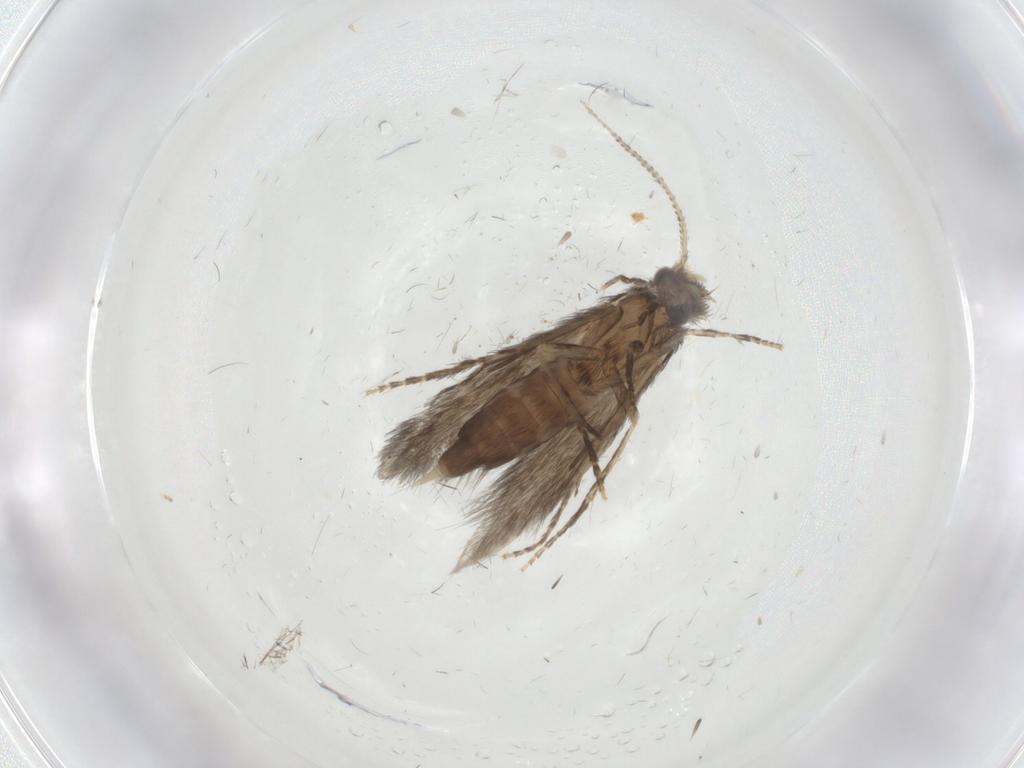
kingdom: Animalia
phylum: Arthropoda
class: Insecta
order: Trichoptera
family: Hydroptilidae
